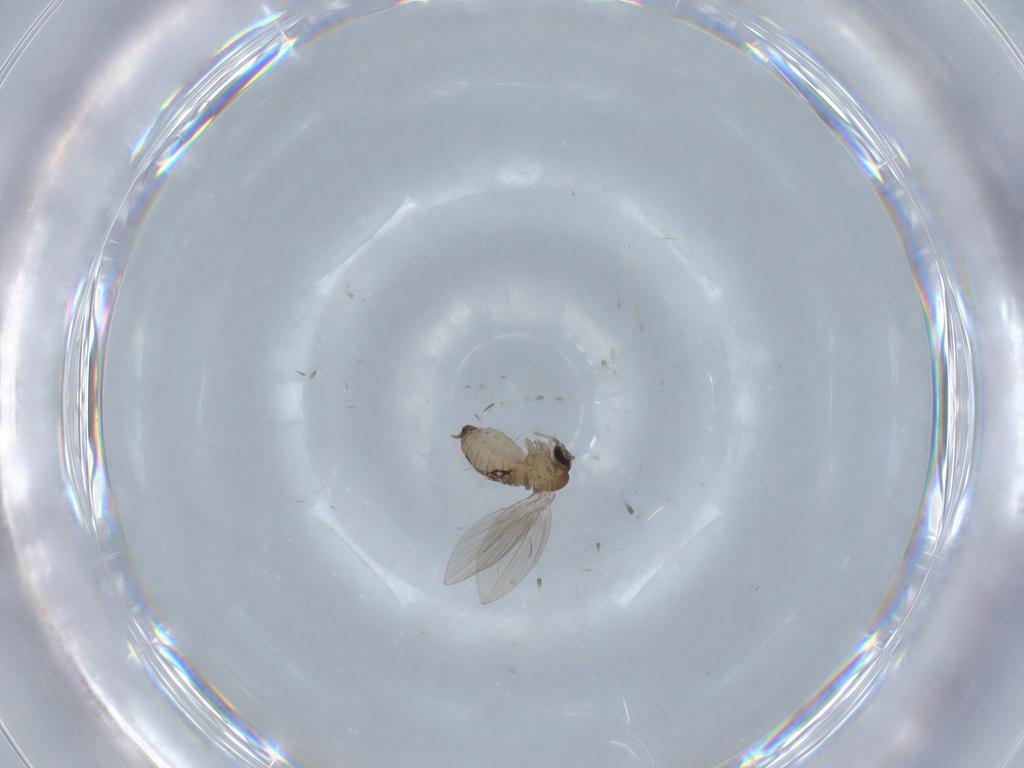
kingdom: Animalia
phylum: Arthropoda
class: Insecta
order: Diptera
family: Psychodidae
